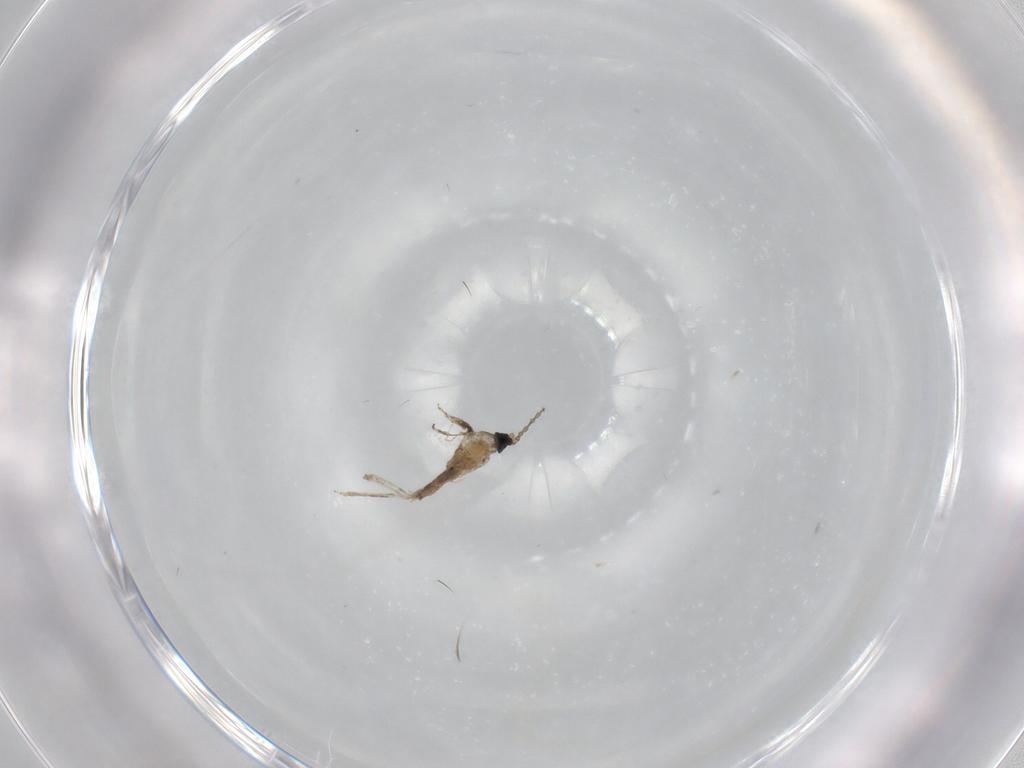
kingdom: Animalia
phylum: Arthropoda
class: Insecta
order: Diptera
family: Cecidomyiidae
